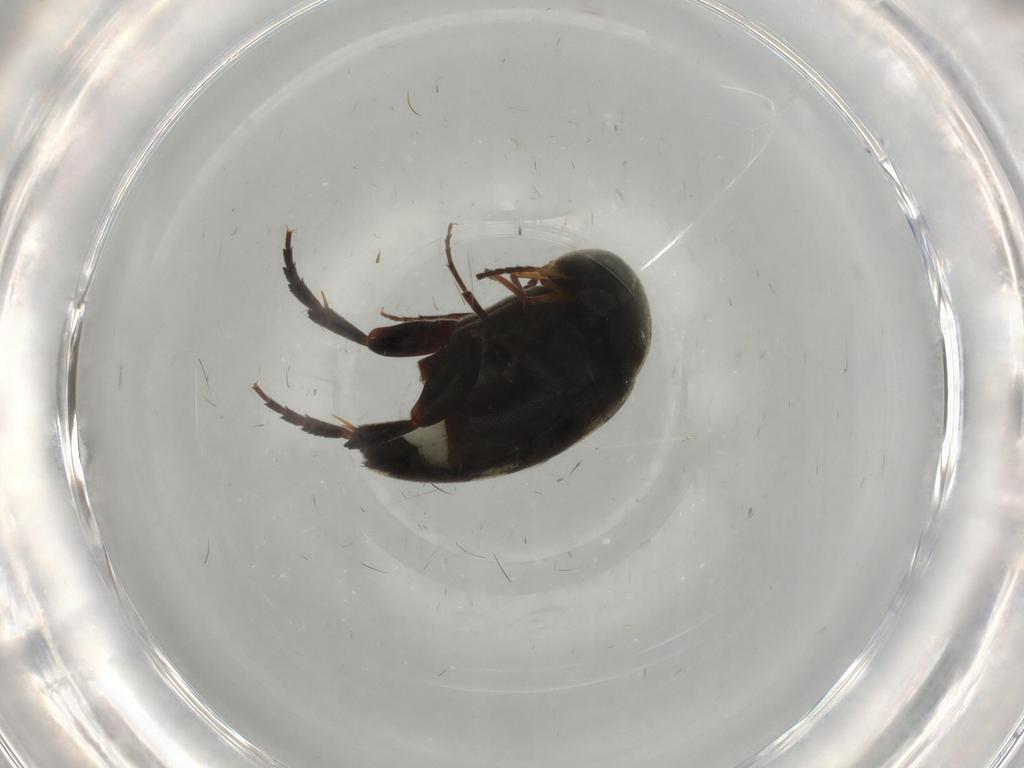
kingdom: Animalia
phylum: Arthropoda
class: Insecta
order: Coleoptera
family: Mordellidae
